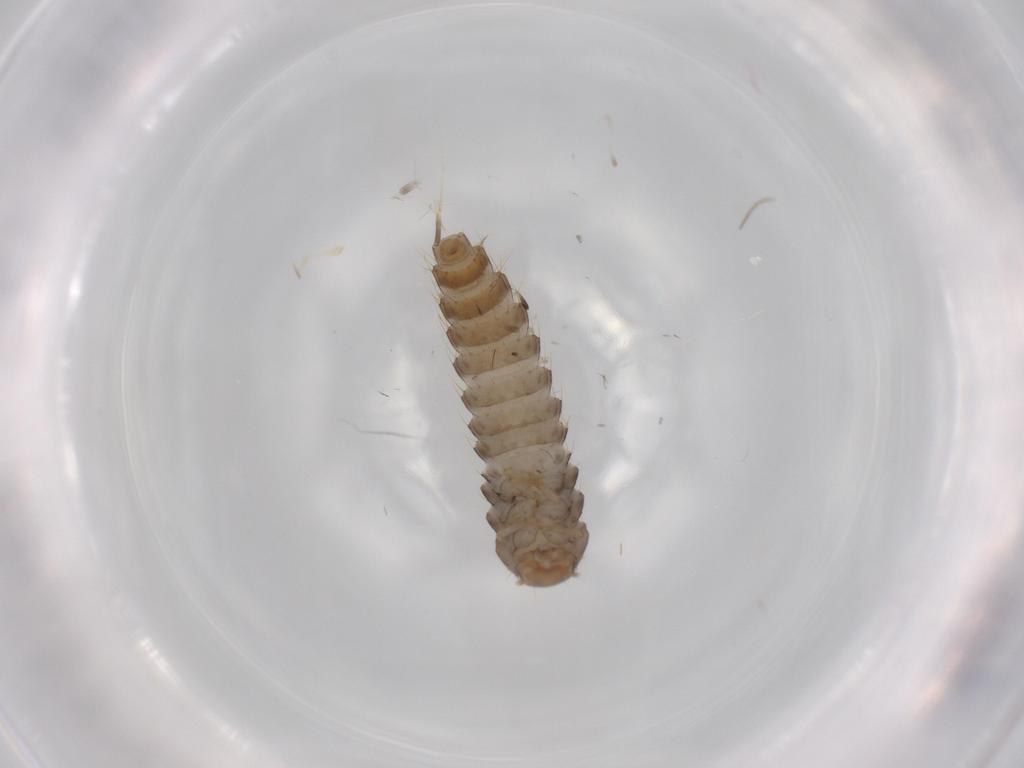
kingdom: Animalia
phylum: Arthropoda
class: Insecta
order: Coleoptera
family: Staphylinidae
